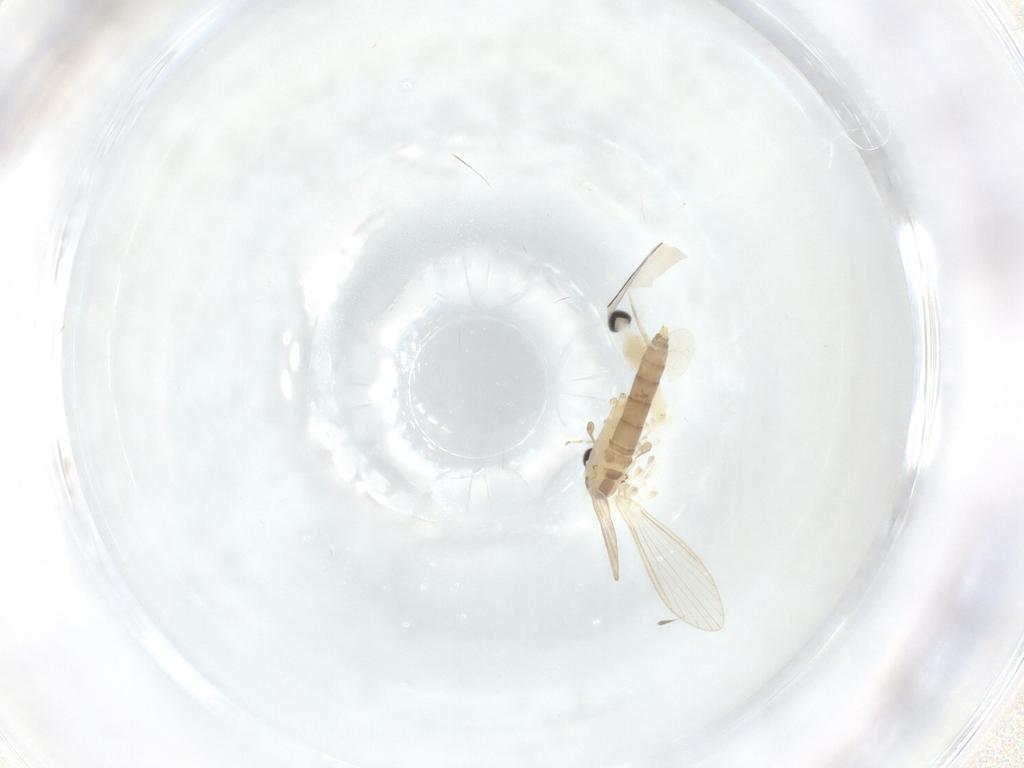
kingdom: Animalia
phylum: Arthropoda
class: Insecta
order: Diptera
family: Psychodidae
